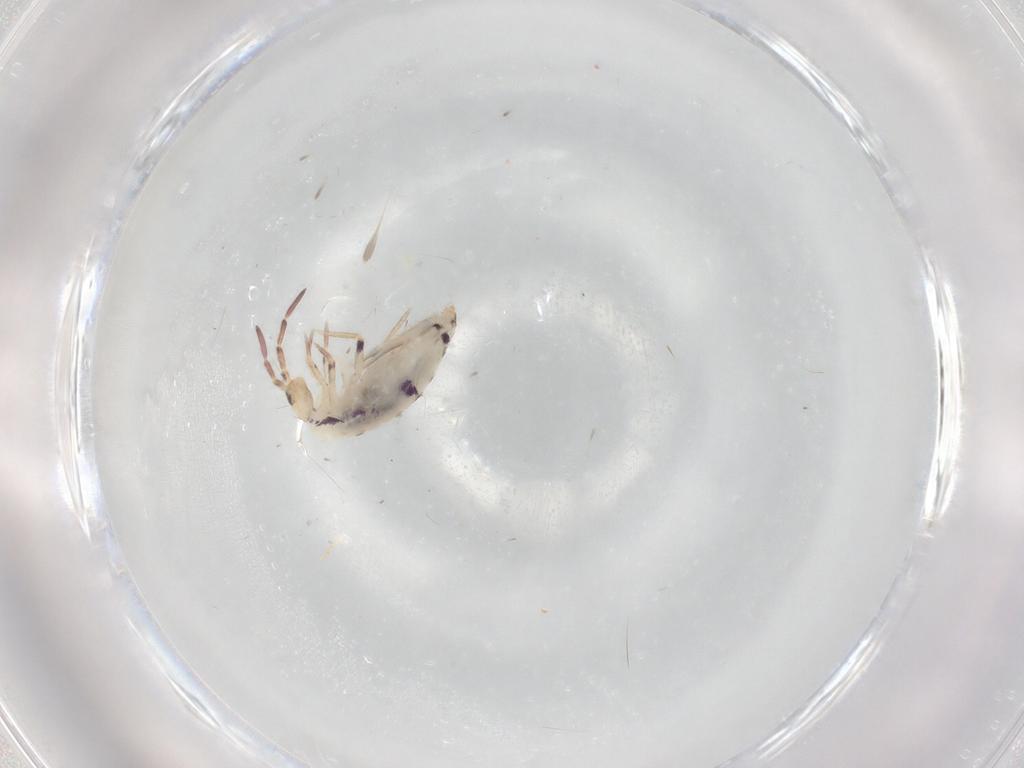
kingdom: Animalia
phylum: Arthropoda
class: Collembola
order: Entomobryomorpha
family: Entomobryidae
